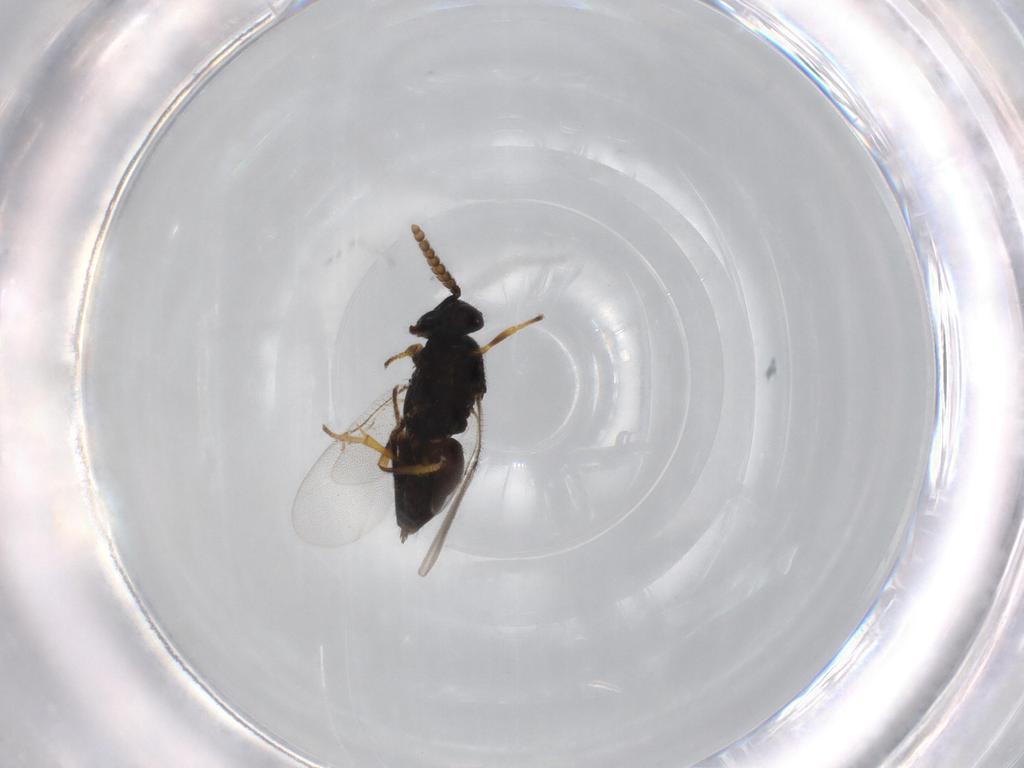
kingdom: Animalia
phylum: Arthropoda
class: Insecta
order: Hymenoptera
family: Encyrtidae
